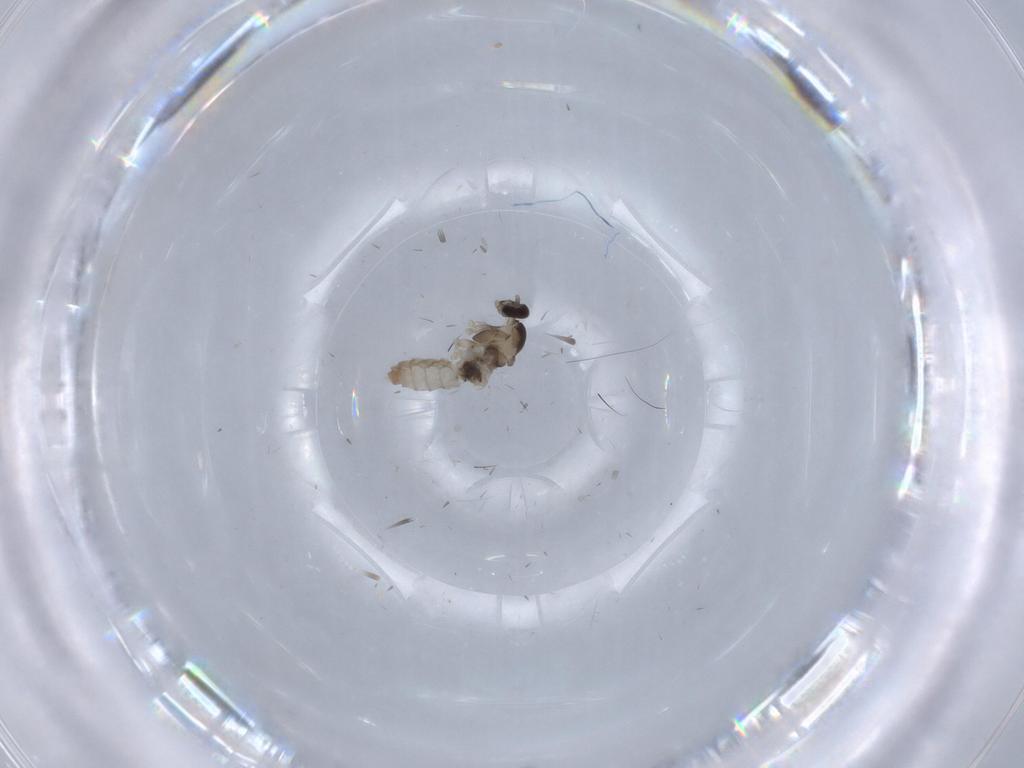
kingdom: Animalia
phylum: Arthropoda
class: Insecta
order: Diptera
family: Cecidomyiidae
